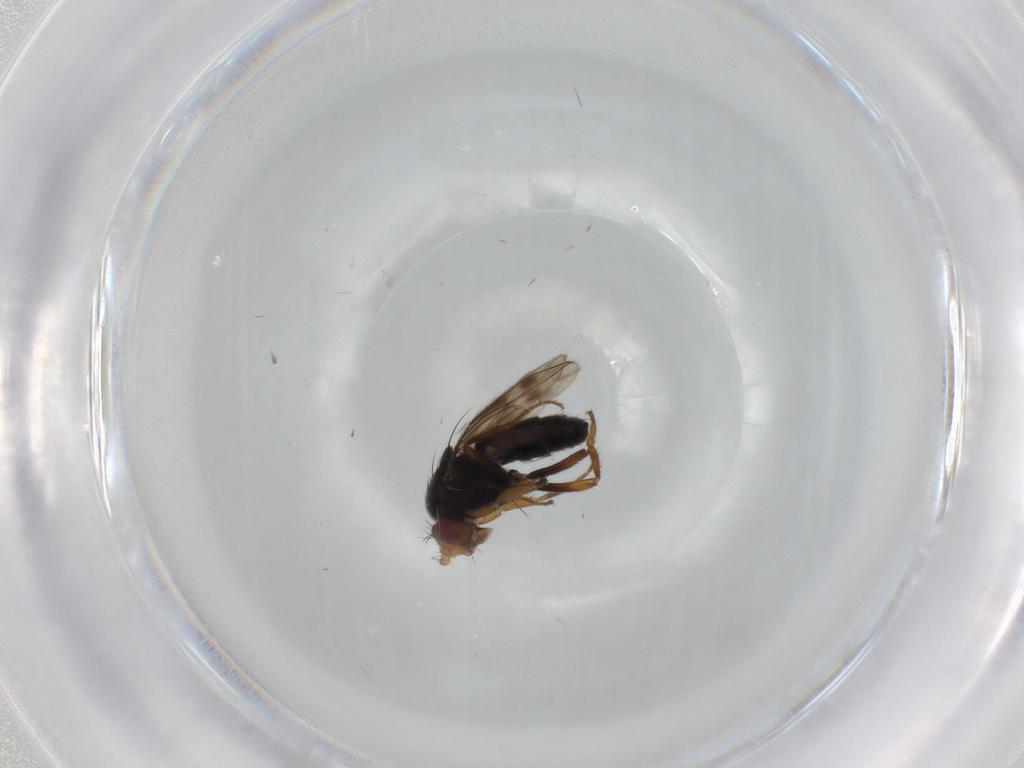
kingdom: Animalia
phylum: Arthropoda
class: Insecta
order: Diptera
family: Sphaeroceridae
